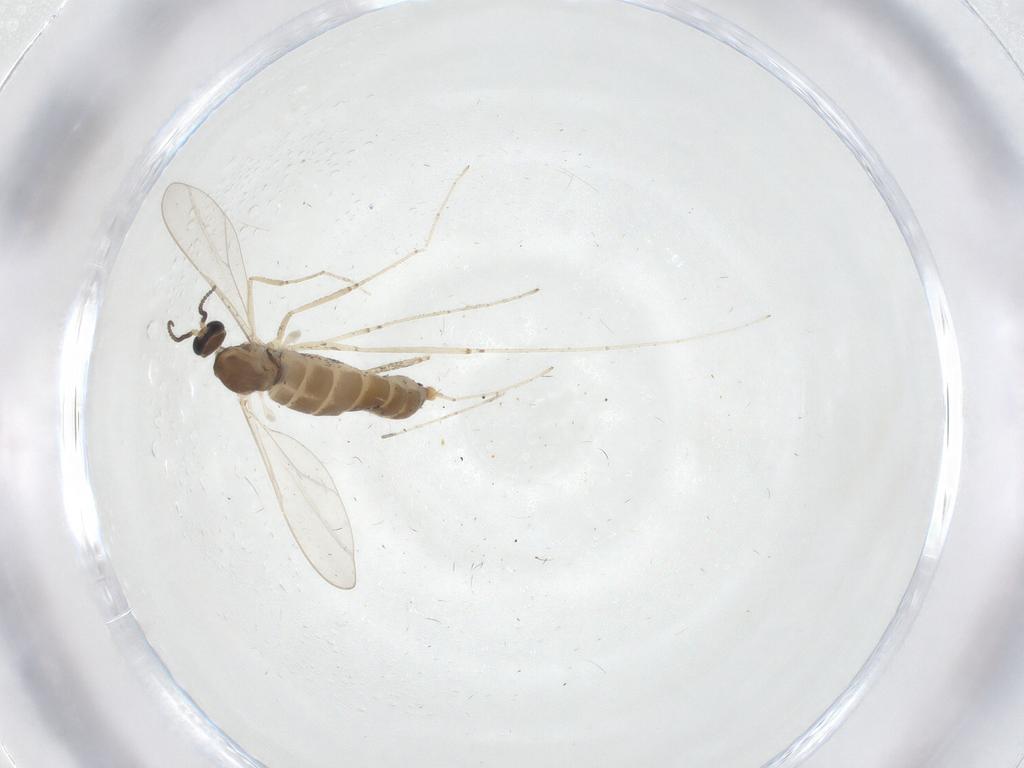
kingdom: Animalia
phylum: Arthropoda
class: Insecta
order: Diptera
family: Cecidomyiidae
